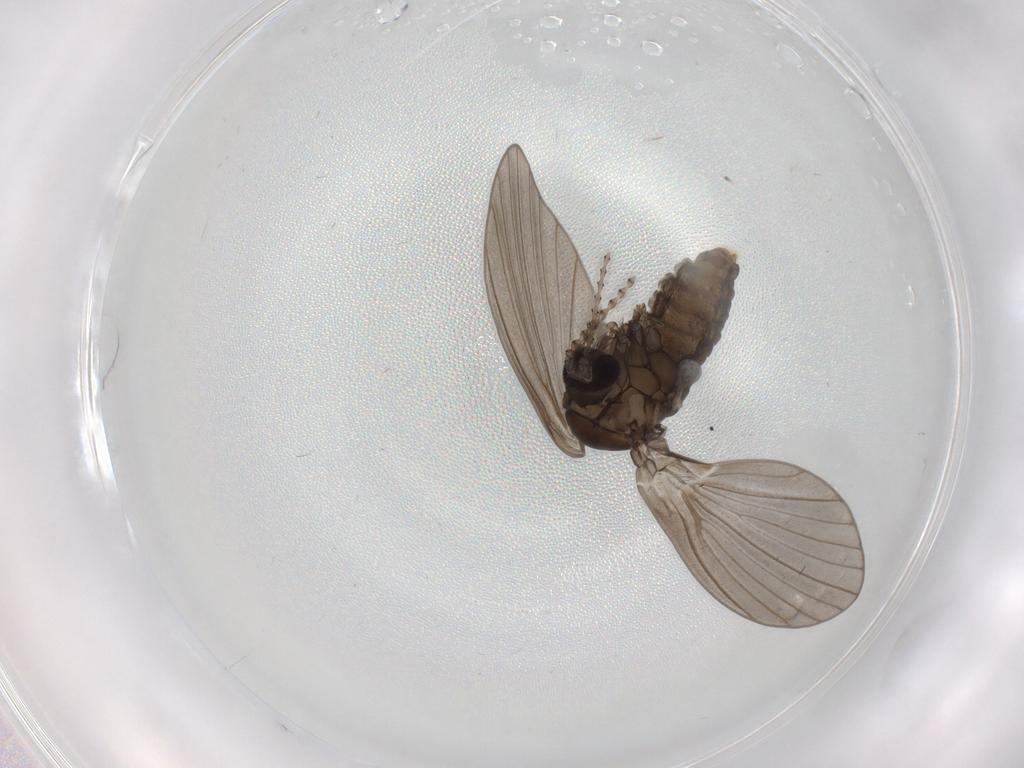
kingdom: Animalia
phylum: Arthropoda
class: Insecta
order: Diptera
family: Psychodidae
